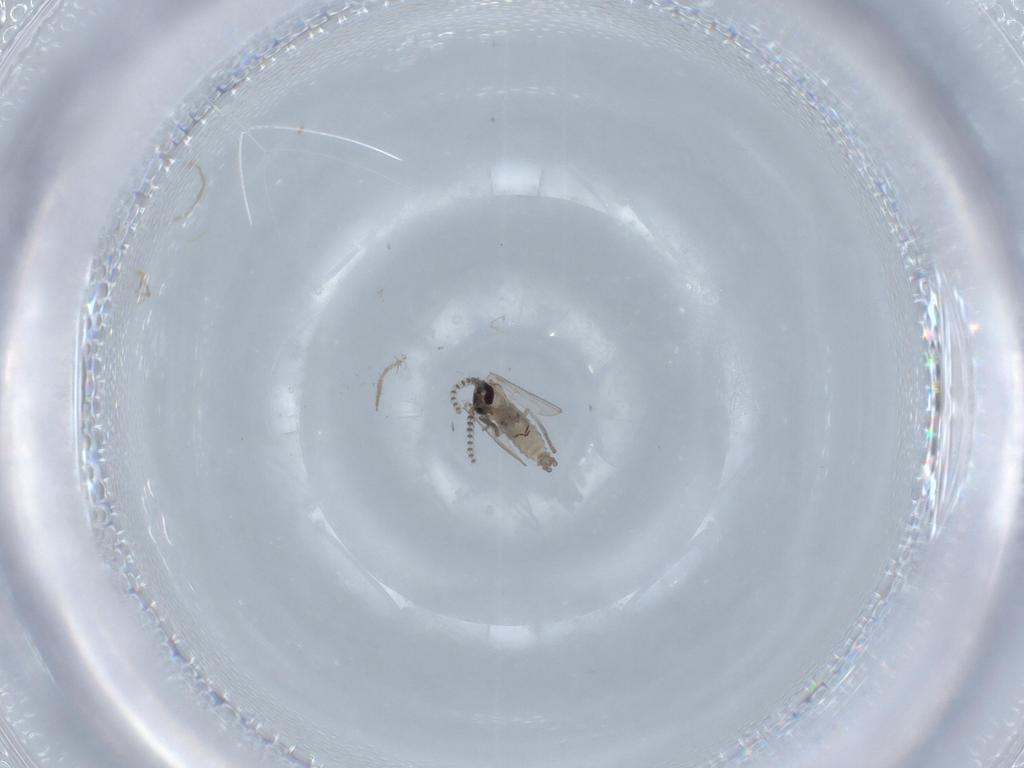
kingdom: Animalia
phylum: Arthropoda
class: Insecta
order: Diptera
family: Psychodidae
